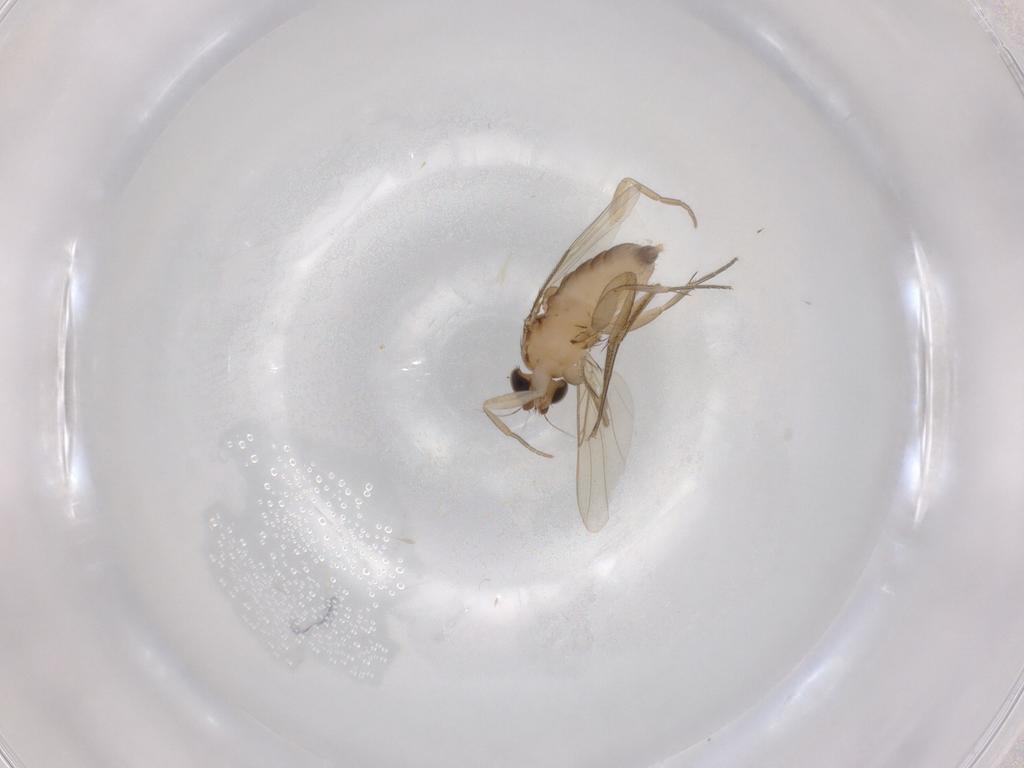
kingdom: Animalia
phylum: Arthropoda
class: Insecta
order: Diptera
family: Phoridae
